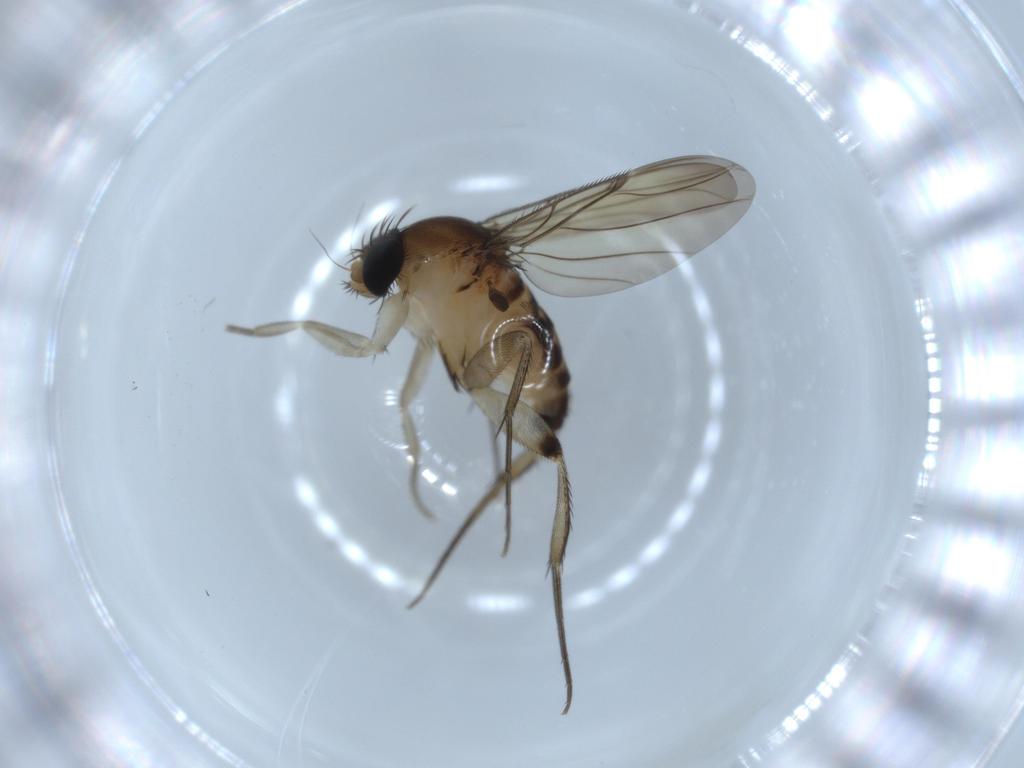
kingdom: Animalia
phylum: Arthropoda
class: Insecta
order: Diptera
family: Phoridae
